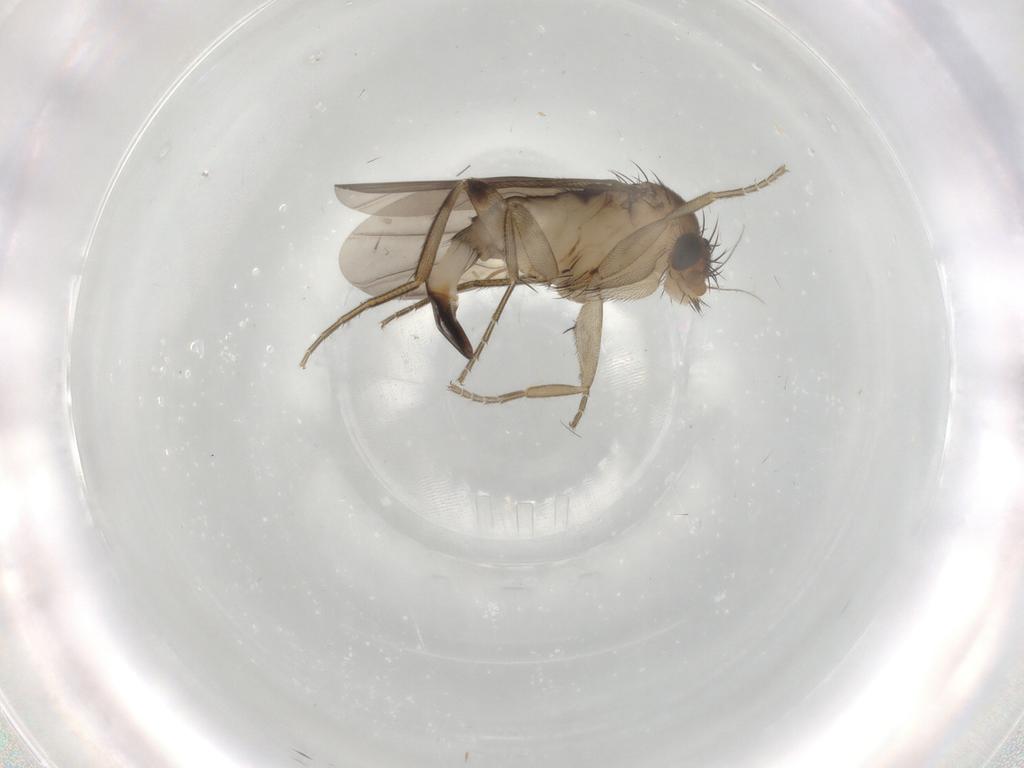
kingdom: Animalia
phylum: Arthropoda
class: Insecta
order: Diptera
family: Phoridae
